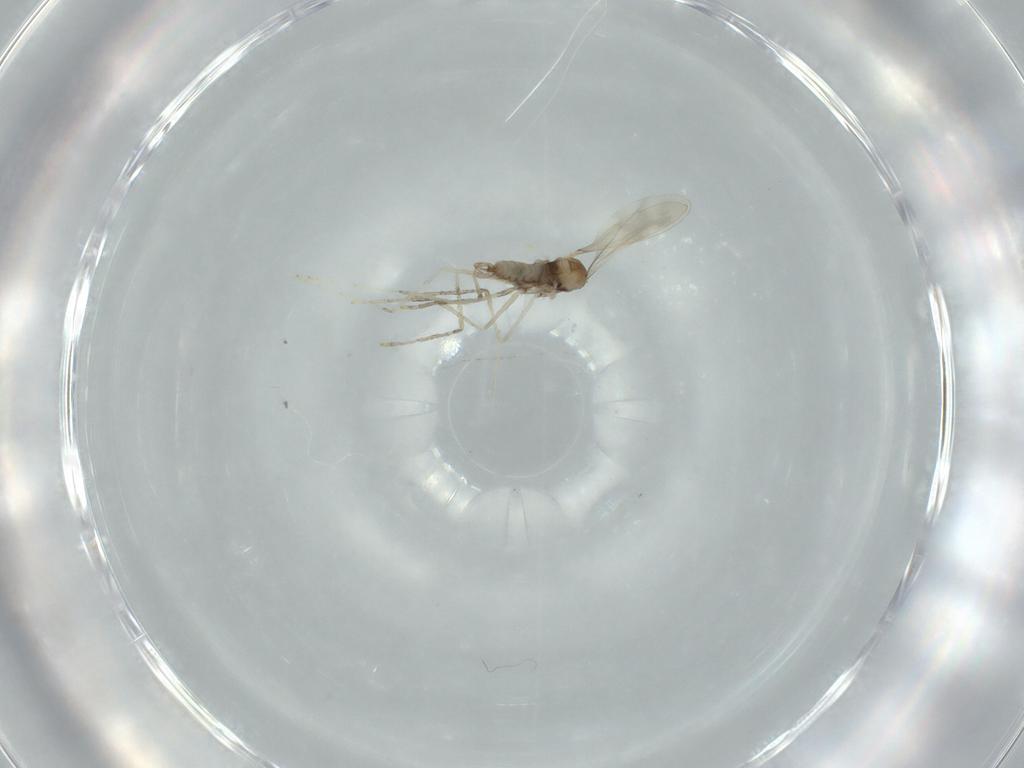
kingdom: Animalia
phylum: Arthropoda
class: Insecta
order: Diptera
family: Cecidomyiidae
